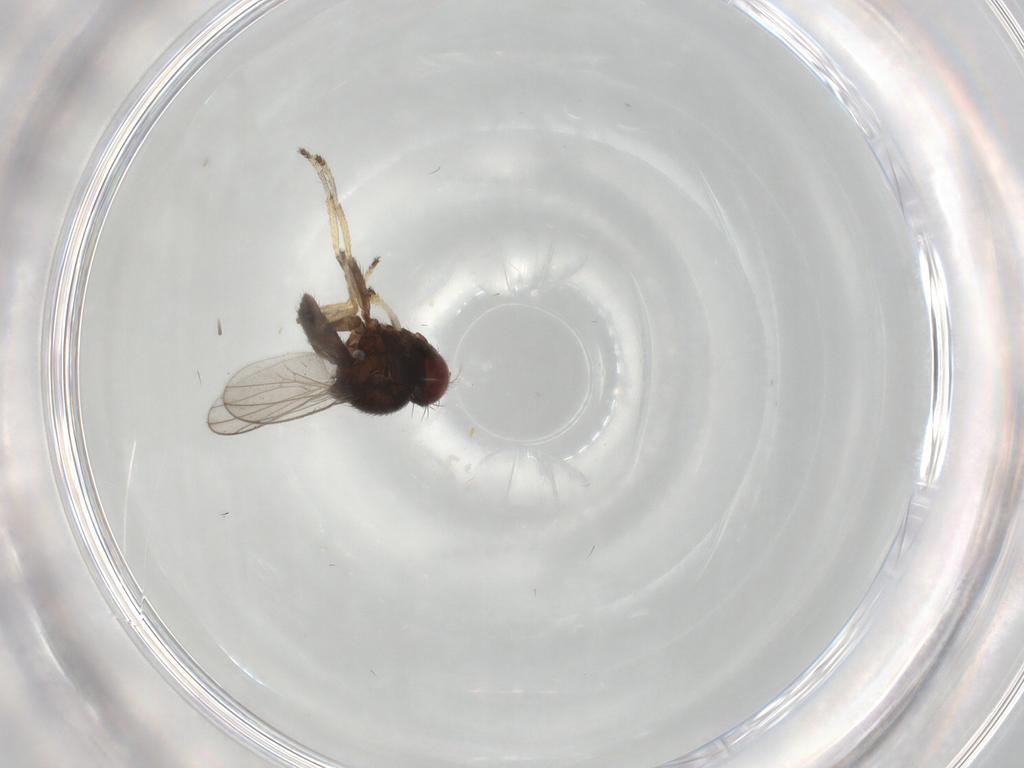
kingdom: Animalia
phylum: Arthropoda
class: Insecta
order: Diptera
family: Ephydridae
